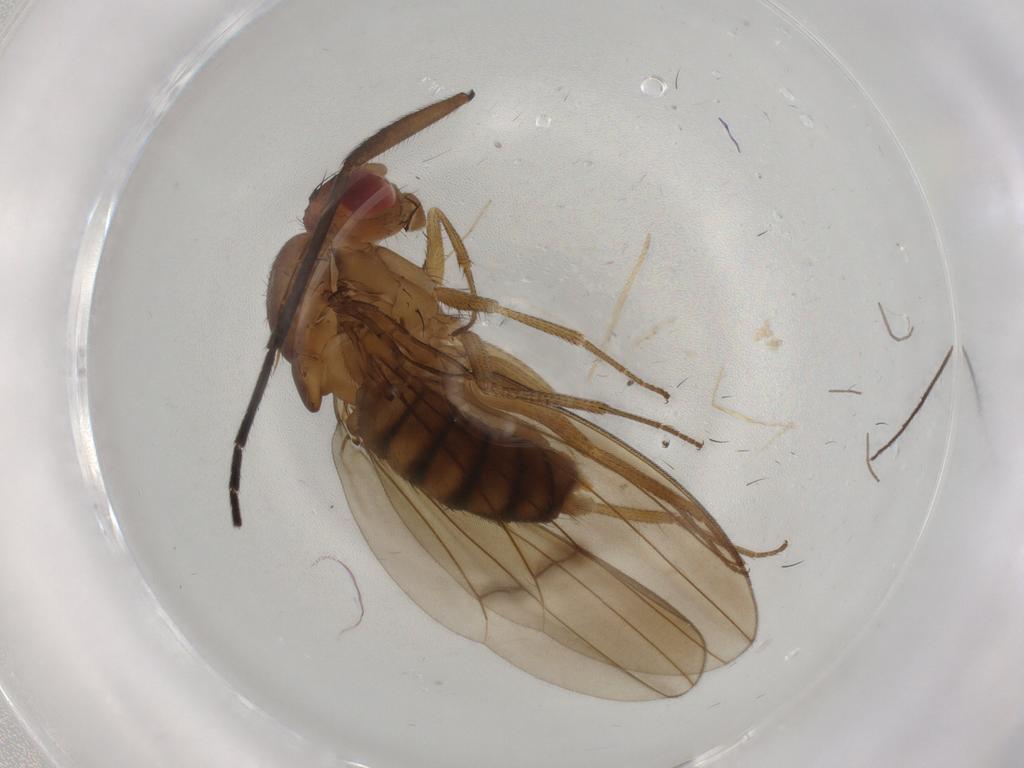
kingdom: Animalia
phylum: Arthropoda
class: Insecta
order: Diptera
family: Drosophilidae
